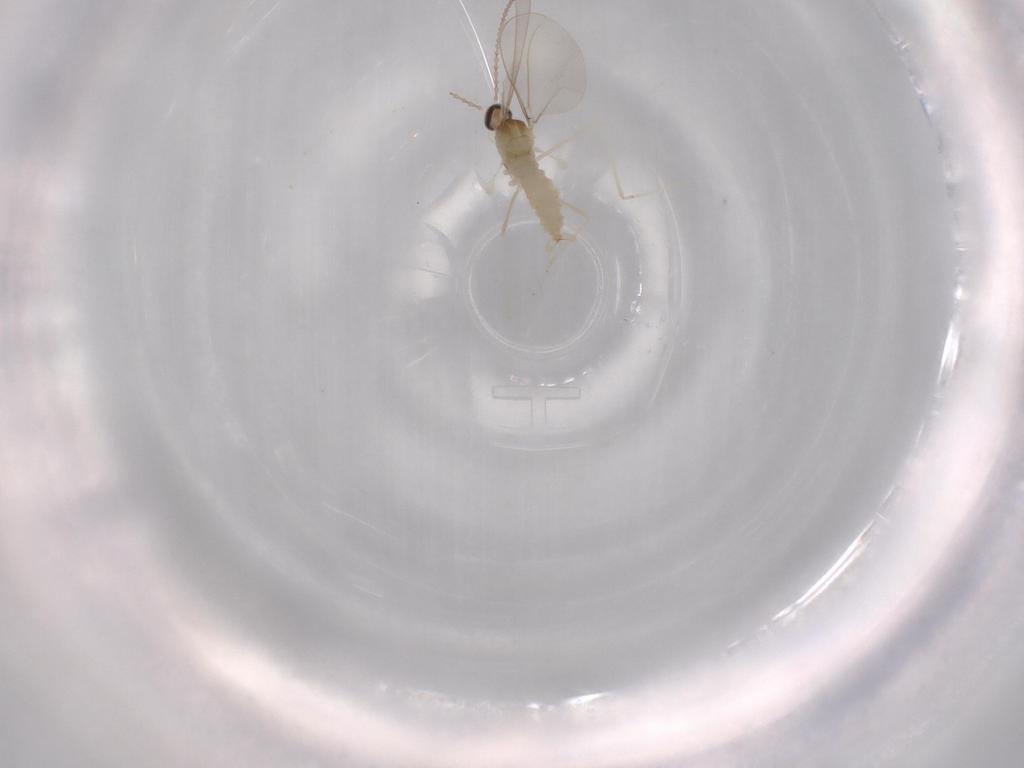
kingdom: Animalia
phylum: Arthropoda
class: Insecta
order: Diptera
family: Cecidomyiidae
